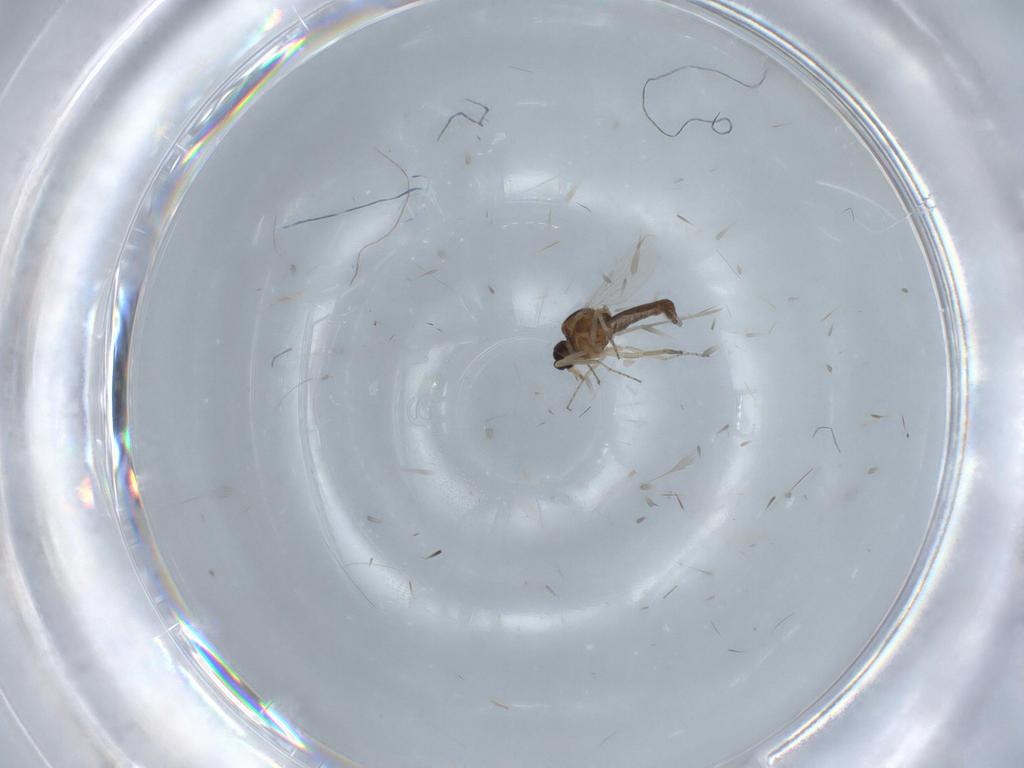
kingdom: Animalia
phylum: Arthropoda
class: Insecta
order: Diptera
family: Ceratopogonidae
